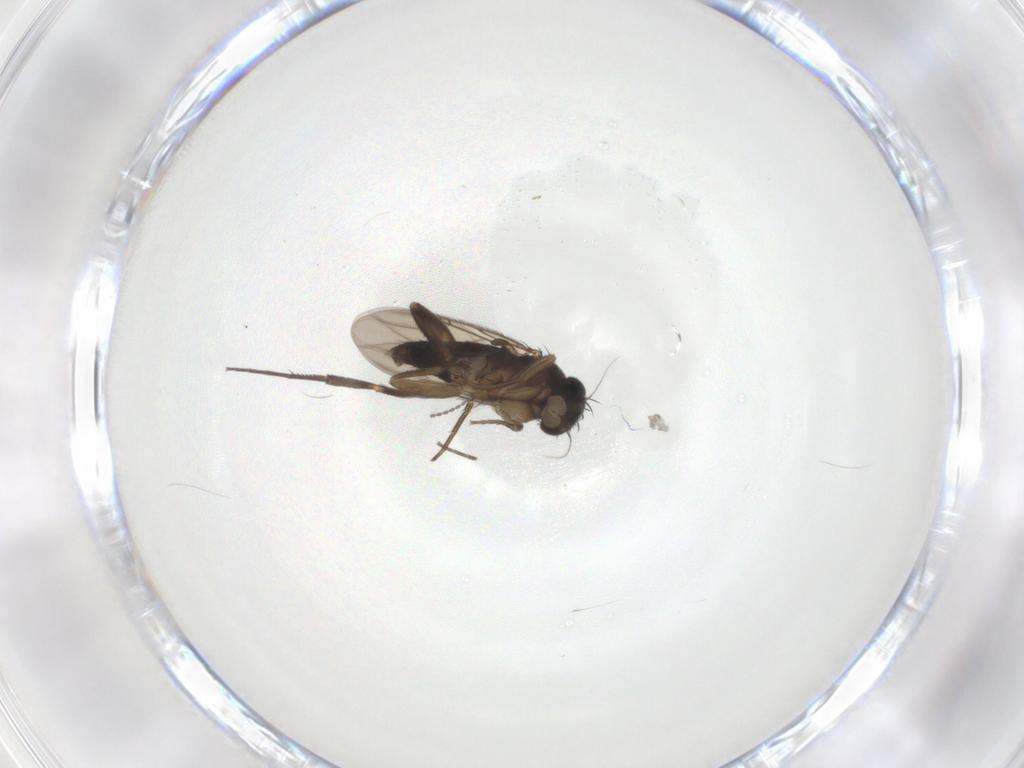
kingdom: Animalia
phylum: Arthropoda
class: Insecta
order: Diptera
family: Phoridae
